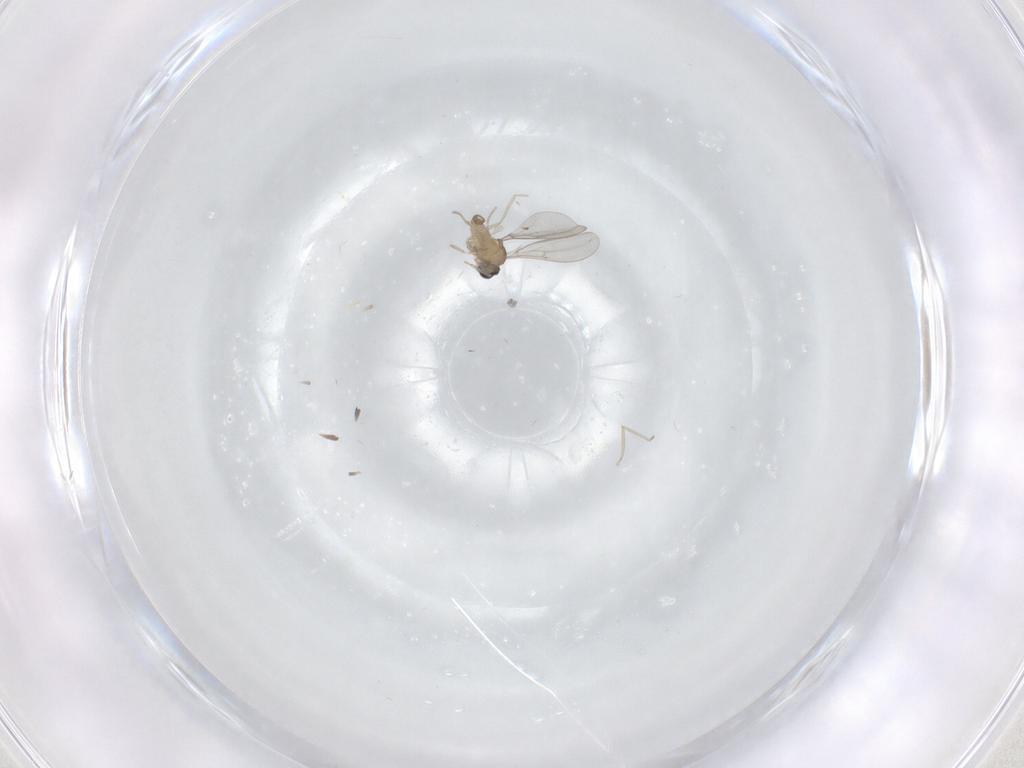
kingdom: Animalia
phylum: Arthropoda
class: Insecta
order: Diptera
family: Cecidomyiidae
